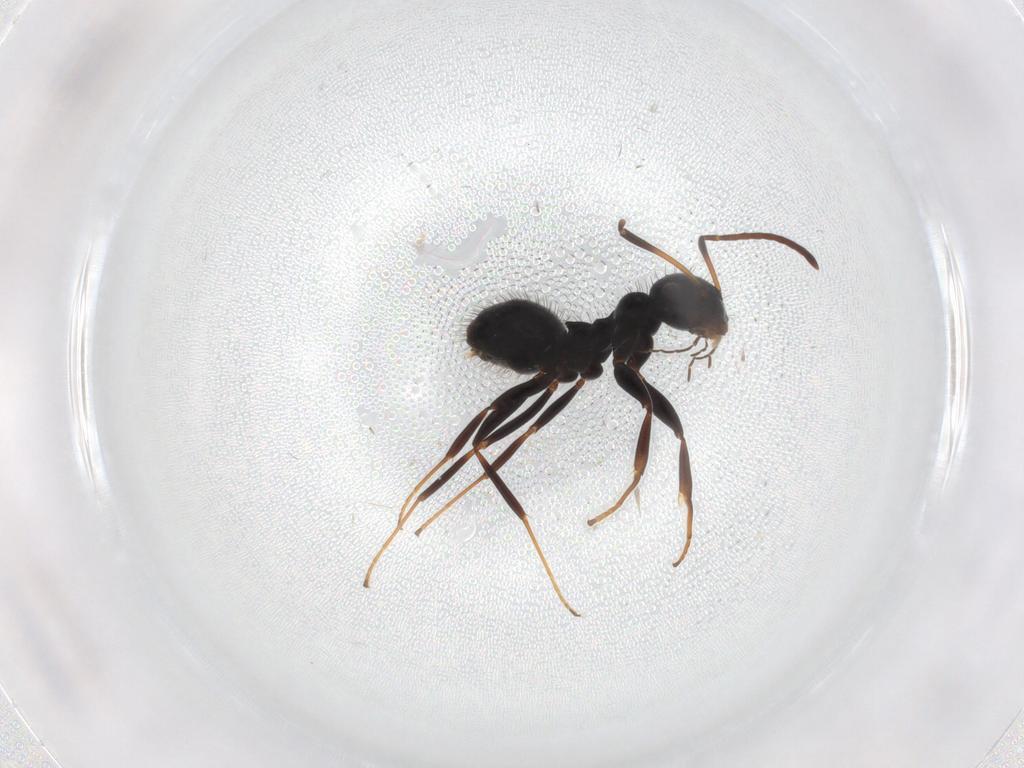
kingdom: Animalia
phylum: Arthropoda
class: Insecta
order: Hymenoptera
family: Formicidae
